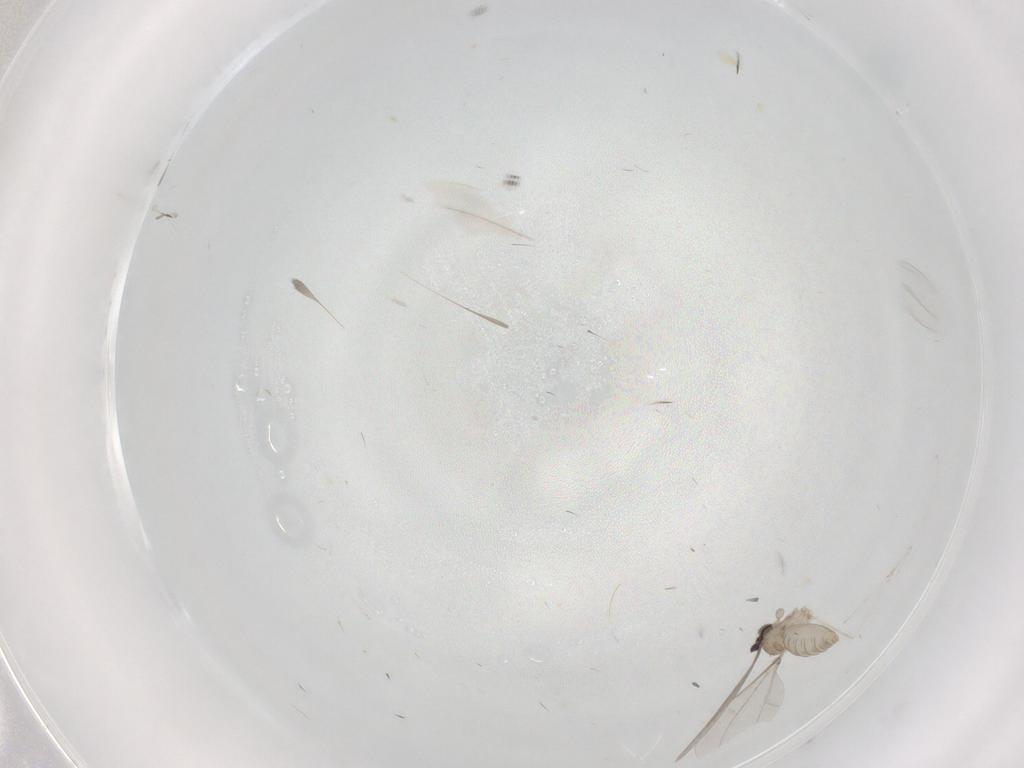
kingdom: Animalia
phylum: Arthropoda
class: Insecta
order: Diptera
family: Cecidomyiidae
